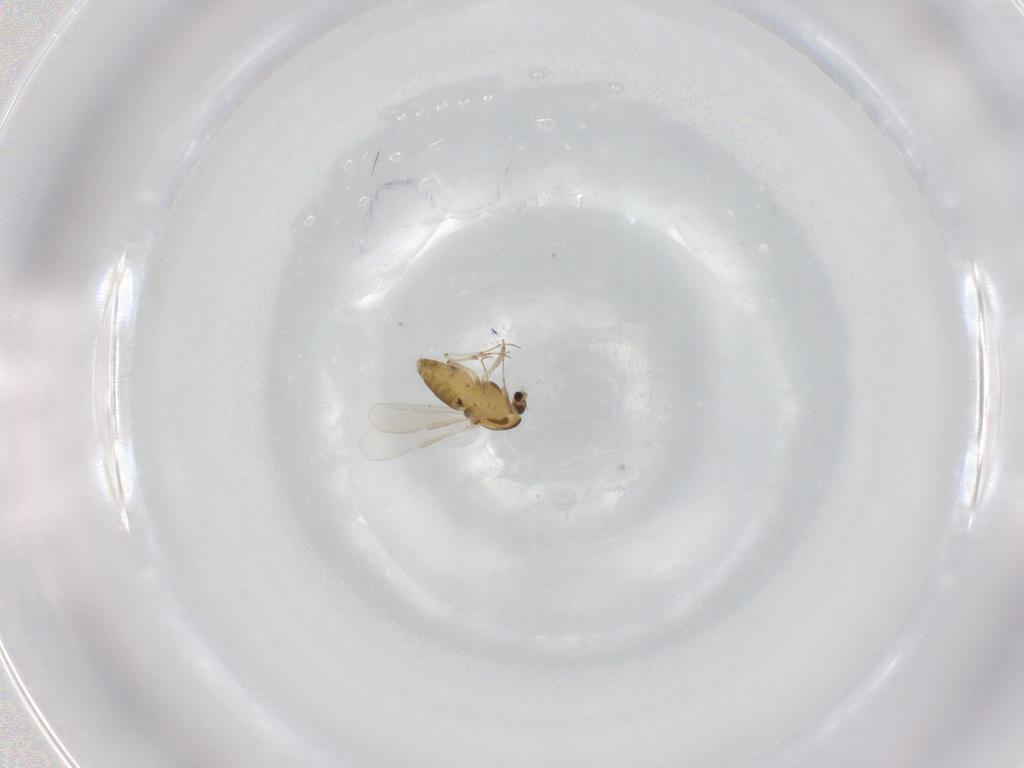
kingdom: Animalia
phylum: Arthropoda
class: Insecta
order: Diptera
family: Chironomidae
